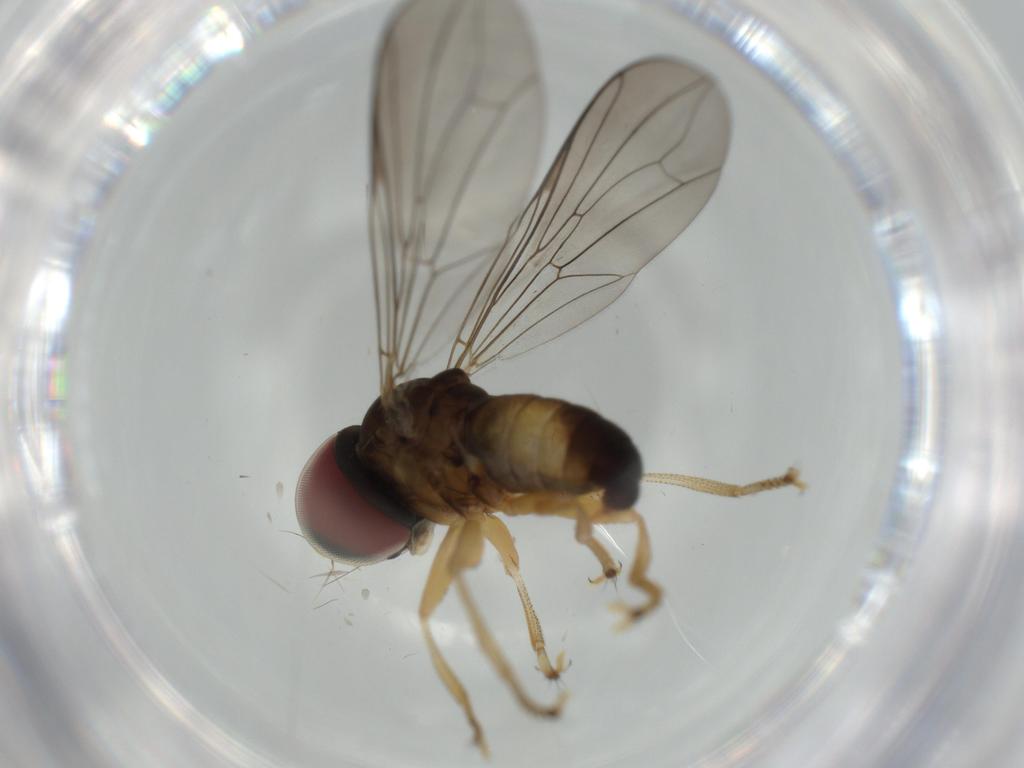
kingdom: Animalia
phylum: Arthropoda
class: Insecta
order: Diptera
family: Pipunculidae
